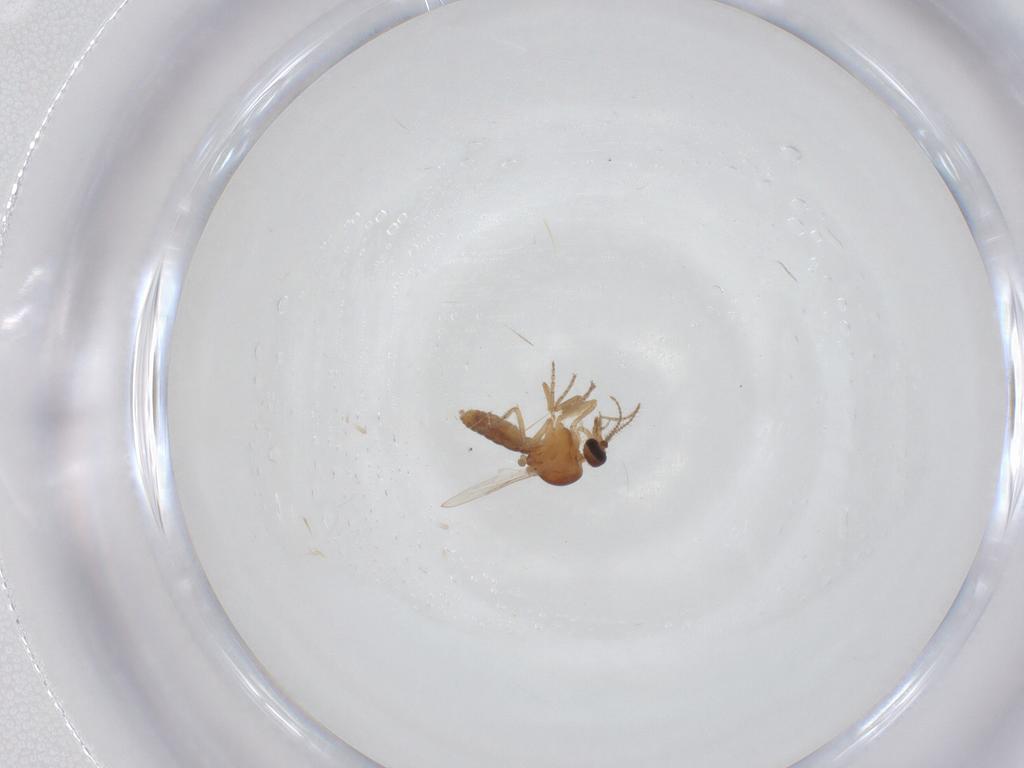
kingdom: Animalia
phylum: Arthropoda
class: Insecta
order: Diptera
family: Ceratopogonidae
